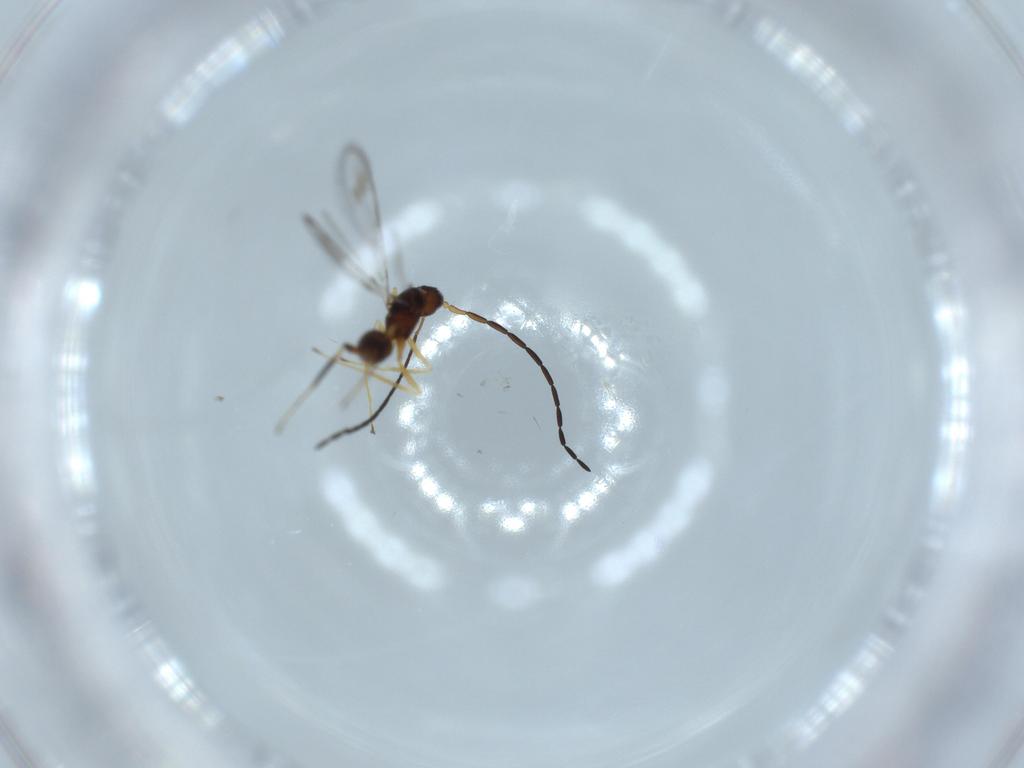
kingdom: Animalia
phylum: Arthropoda
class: Insecta
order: Hymenoptera
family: Mymaridae
